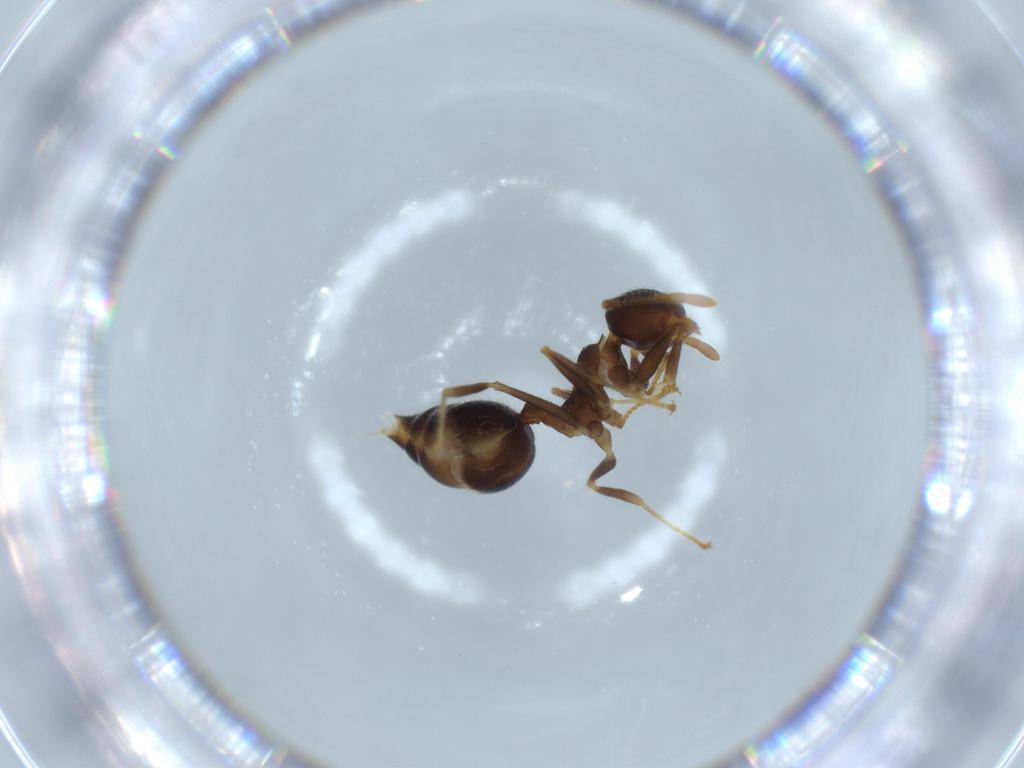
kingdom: Animalia
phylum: Arthropoda
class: Insecta
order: Hymenoptera
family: Formicidae
